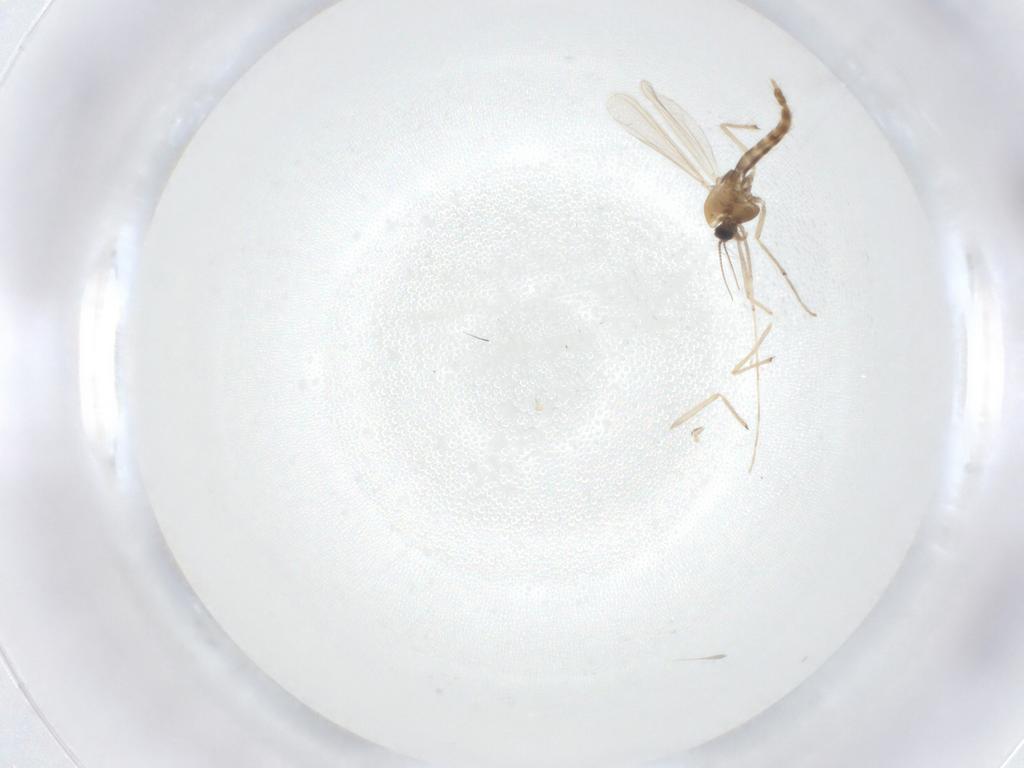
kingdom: Animalia
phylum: Arthropoda
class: Insecta
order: Diptera
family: Chironomidae
